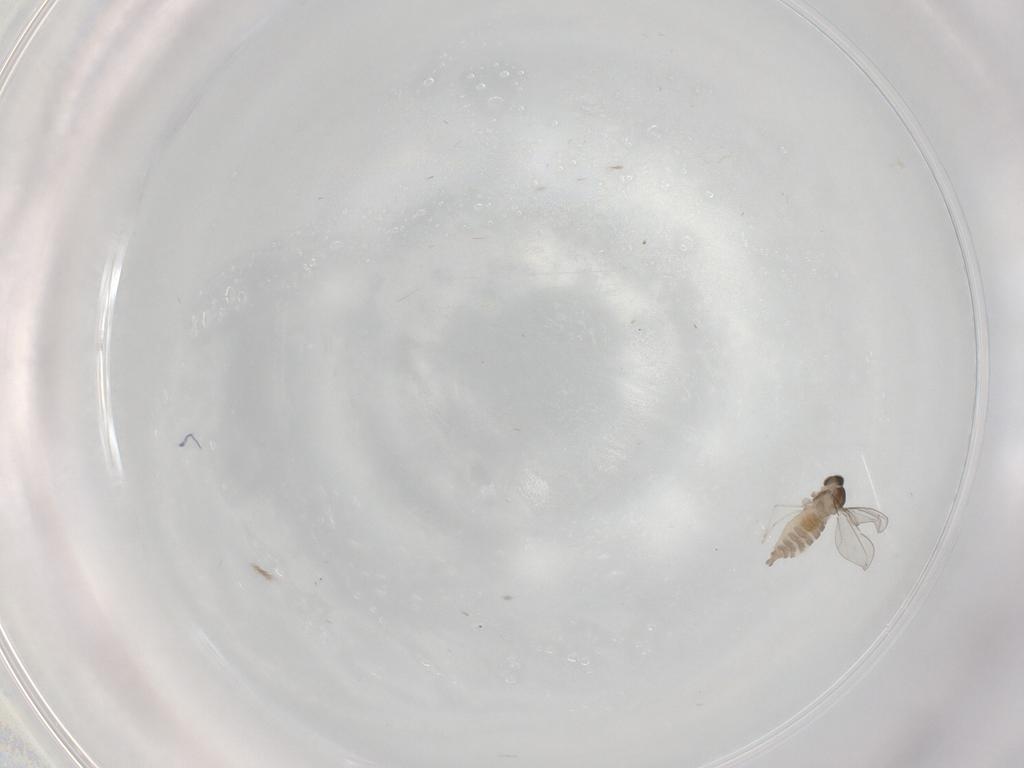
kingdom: Animalia
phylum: Arthropoda
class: Insecta
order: Diptera
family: Cecidomyiidae
